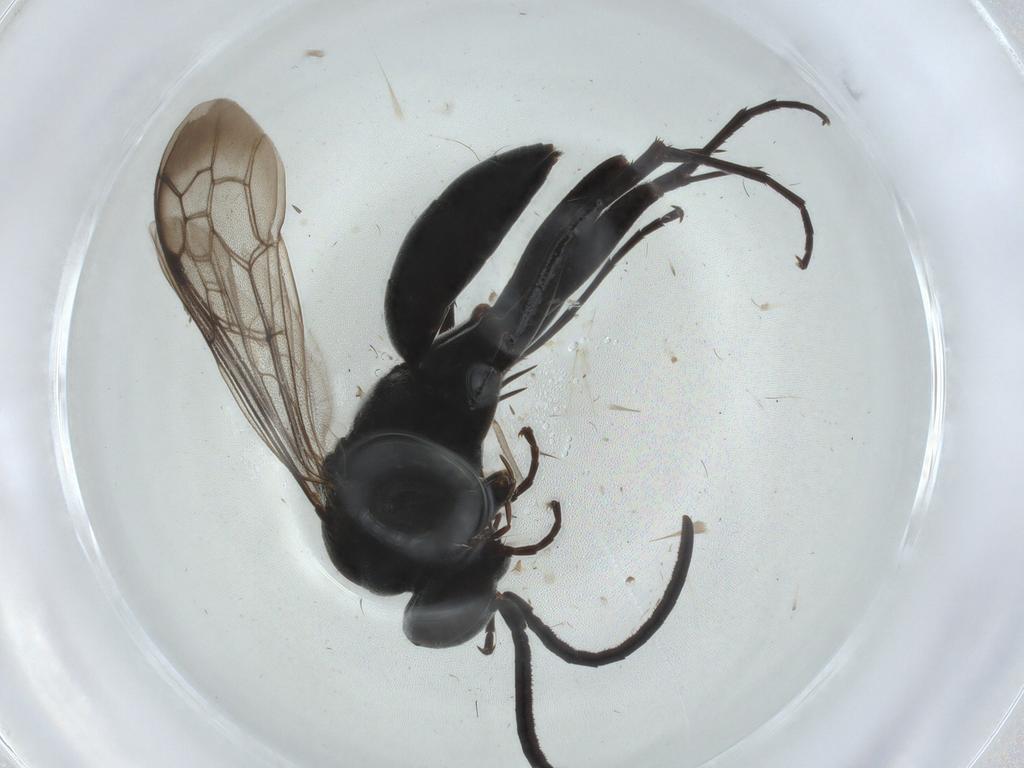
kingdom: Animalia
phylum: Arthropoda
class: Insecta
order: Hymenoptera
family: Pompilidae
